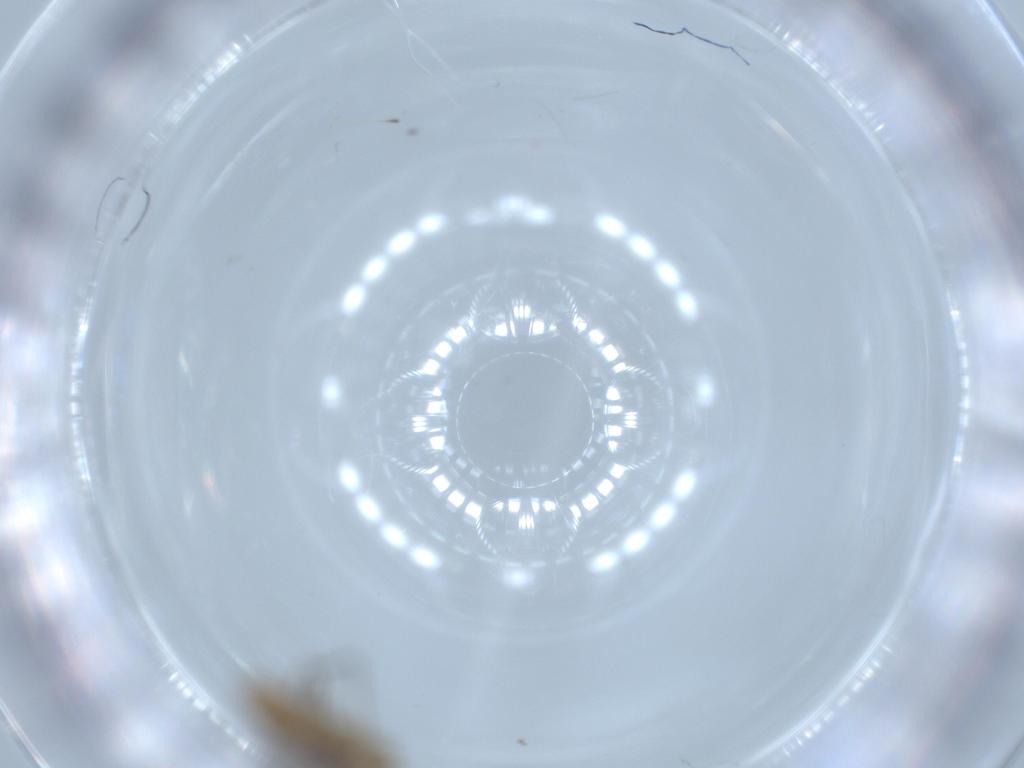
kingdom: Animalia
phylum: Arthropoda
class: Insecta
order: Diptera
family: Chironomidae
